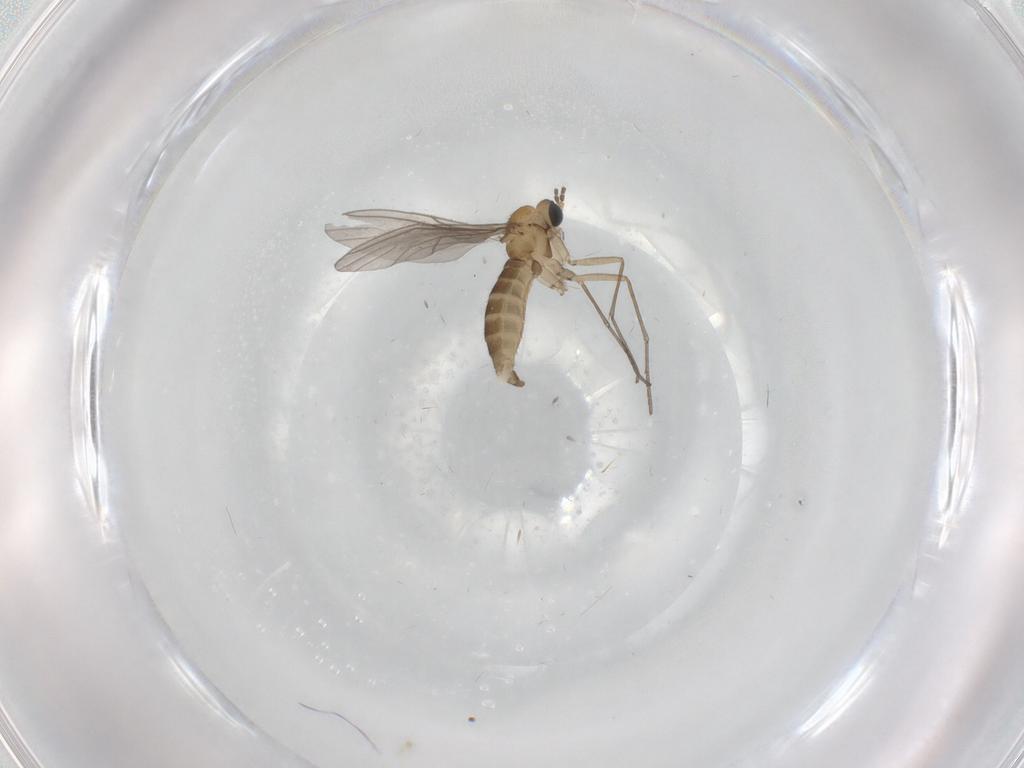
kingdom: Animalia
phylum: Arthropoda
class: Insecta
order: Diptera
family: Sciaridae
